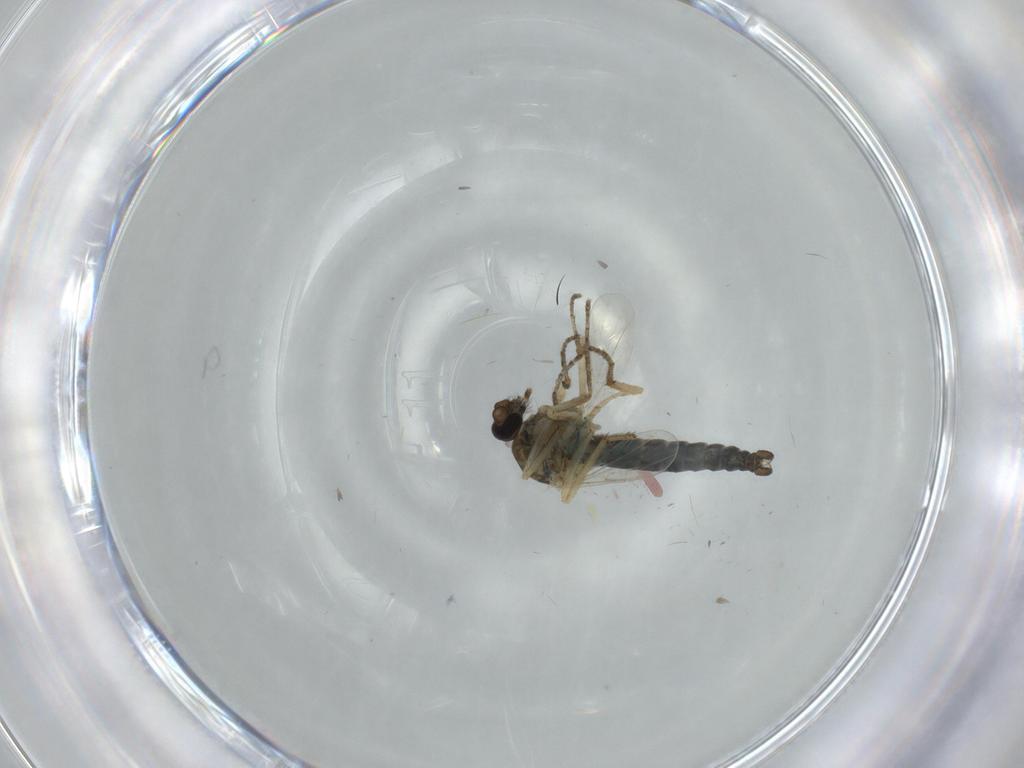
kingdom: Animalia
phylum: Arthropoda
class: Insecta
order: Diptera
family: Ceratopogonidae
